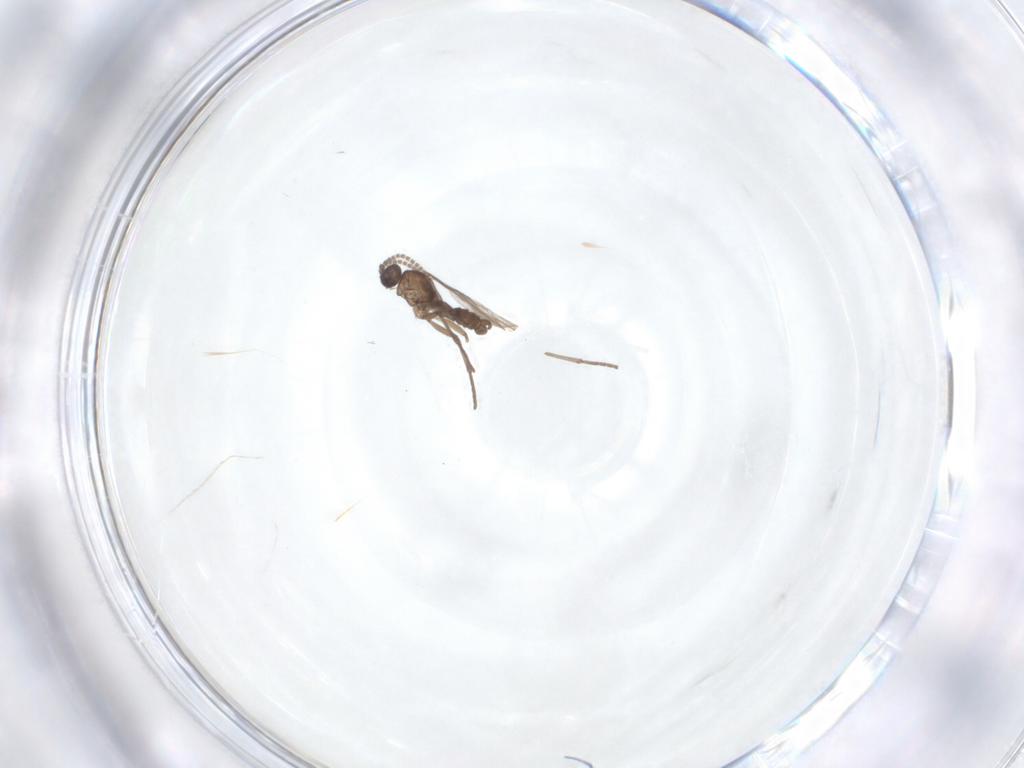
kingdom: Animalia
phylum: Arthropoda
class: Insecta
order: Diptera
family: Sciaridae
